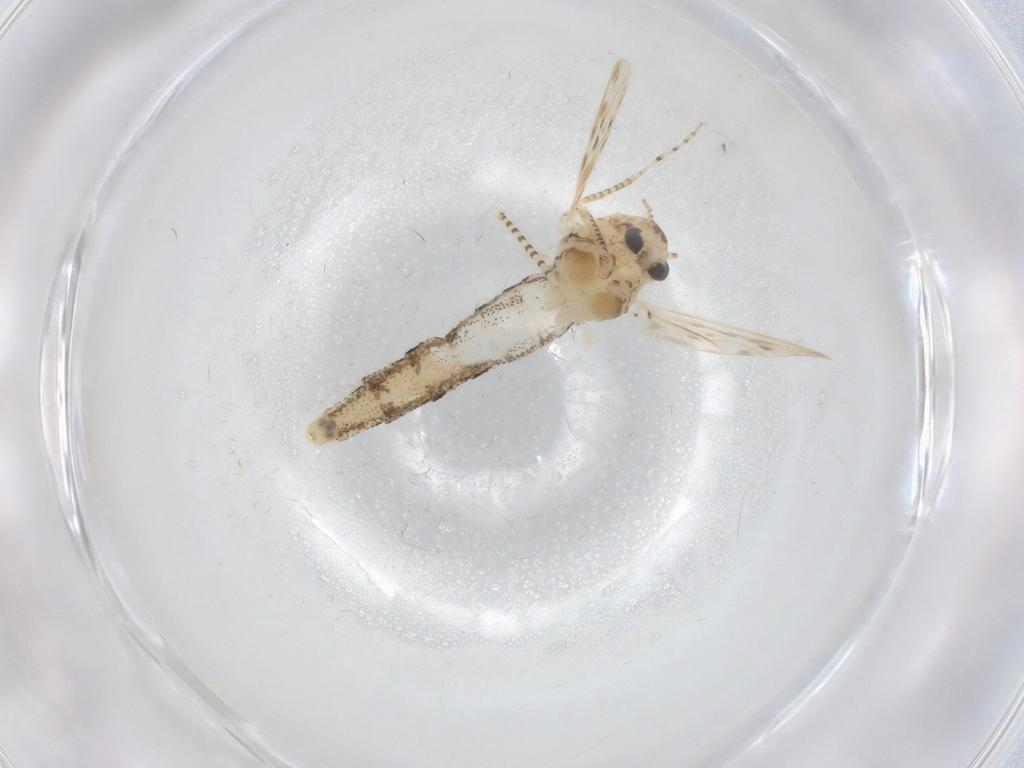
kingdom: Animalia
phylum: Arthropoda
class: Insecta
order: Diptera
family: Chaoboridae
